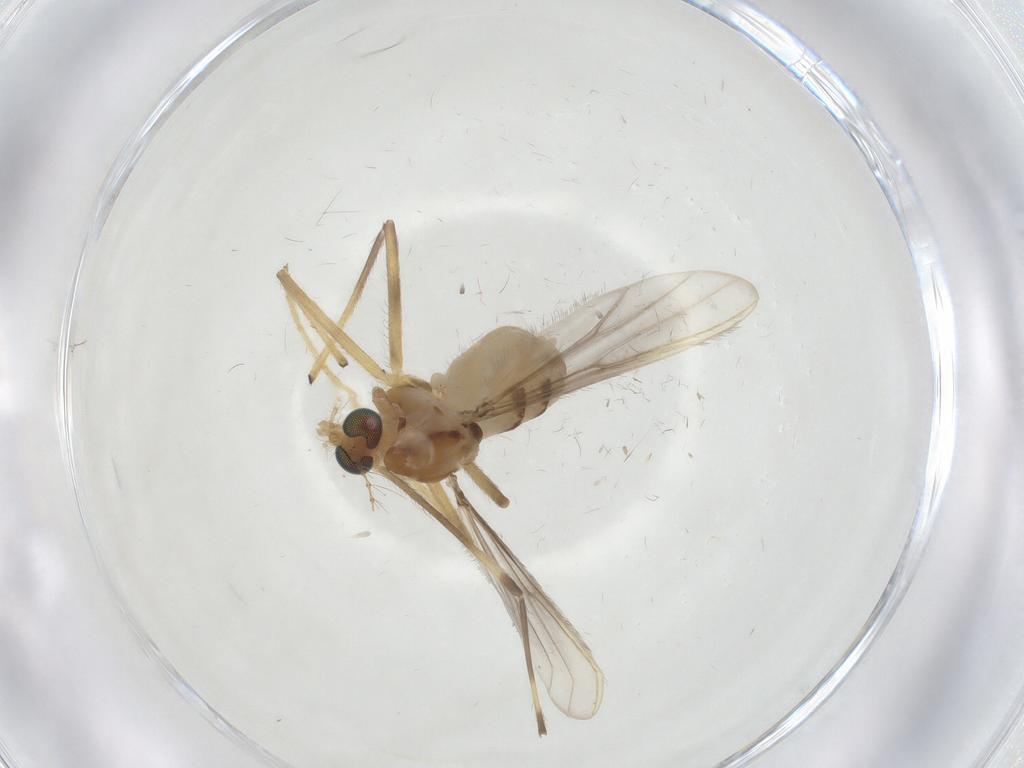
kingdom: Animalia
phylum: Arthropoda
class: Insecta
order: Diptera
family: Chironomidae
